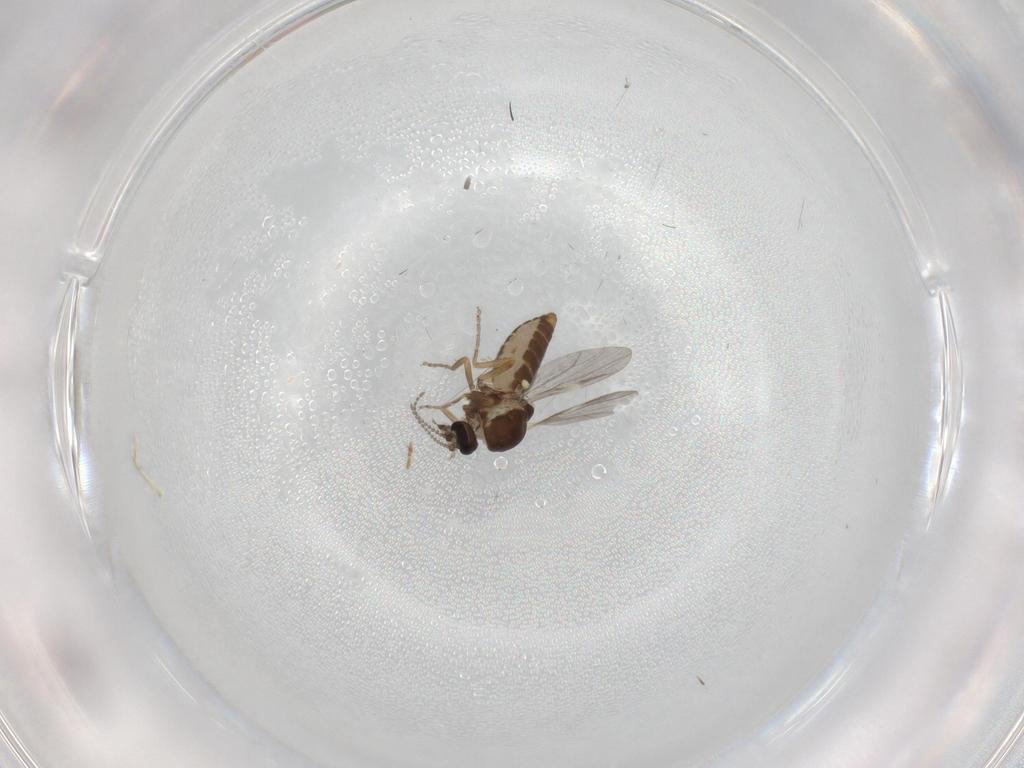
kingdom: Animalia
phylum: Arthropoda
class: Insecta
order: Diptera
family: Ceratopogonidae
